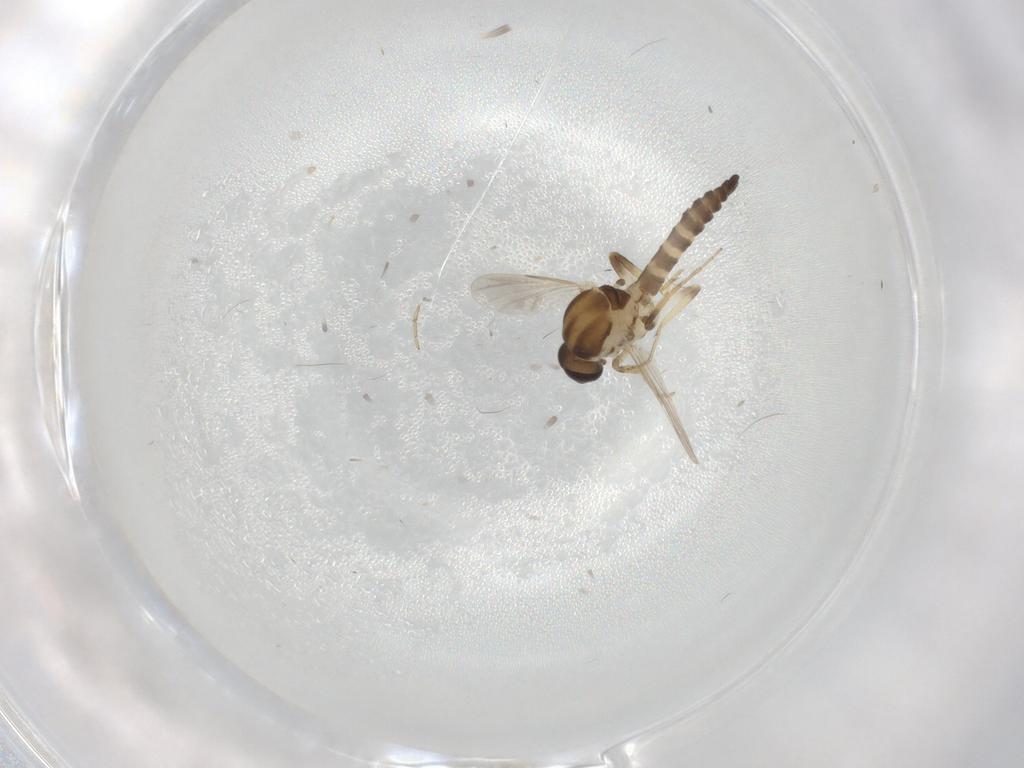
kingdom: Animalia
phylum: Arthropoda
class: Insecta
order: Diptera
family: Ceratopogonidae
